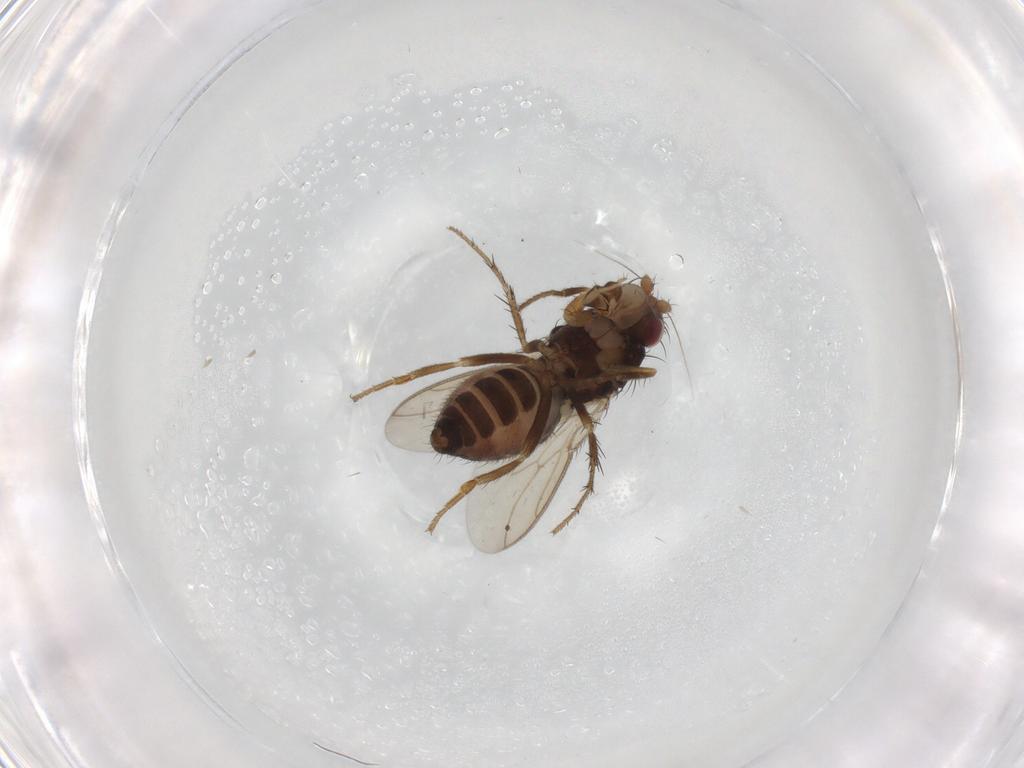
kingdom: Animalia
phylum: Arthropoda
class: Insecta
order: Diptera
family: Sphaeroceridae
